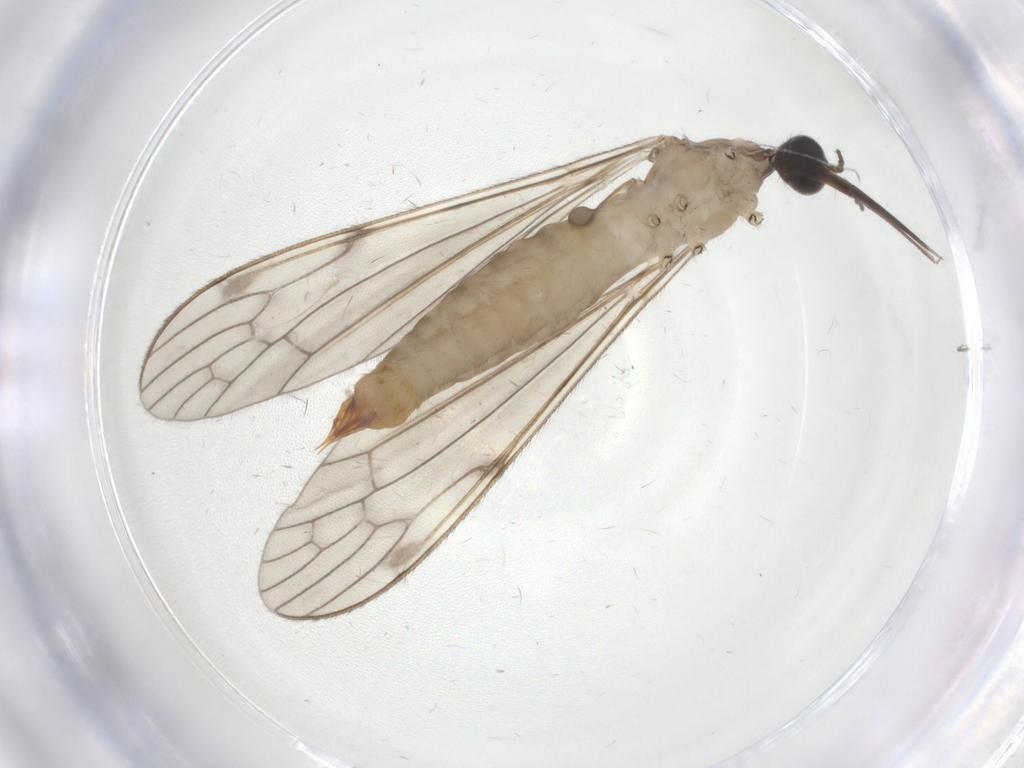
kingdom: Animalia
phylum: Arthropoda
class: Insecta
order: Diptera
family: Chironomidae
